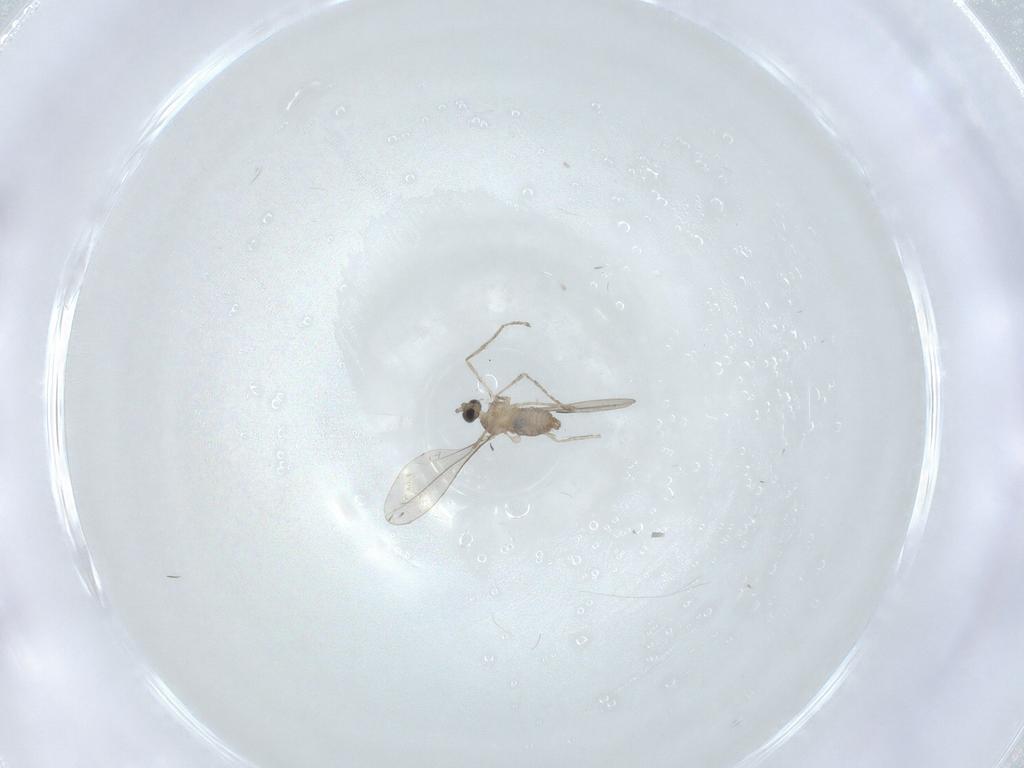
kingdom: Animalia
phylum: Arthropoda
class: Insecta
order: Diptera
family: Cecidomyiidae
